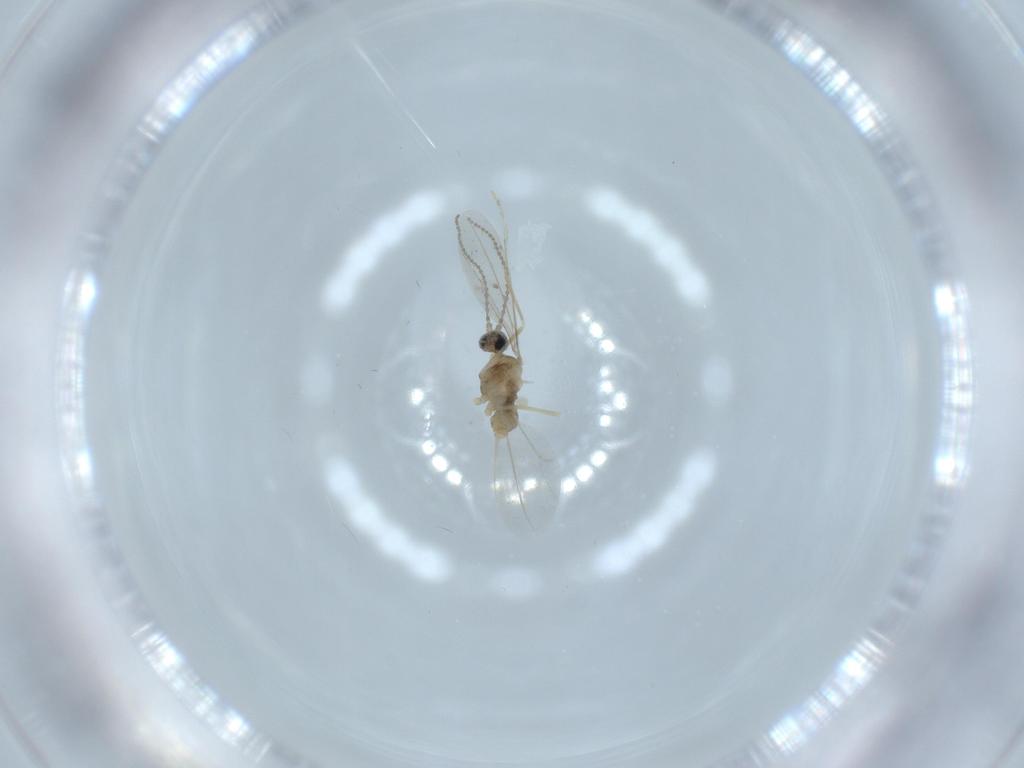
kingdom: Animalia
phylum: Arthropoda
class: Insecta
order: Diptera
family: Cecidomyiidae
